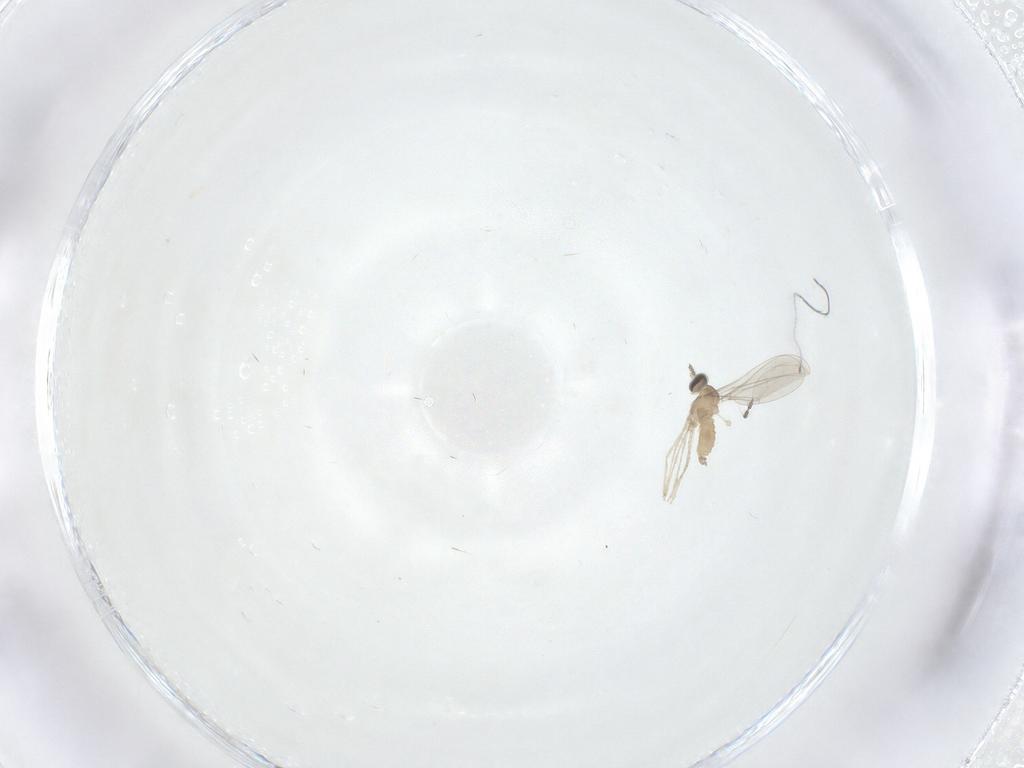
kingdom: Animalia
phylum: Arthropoda
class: Insecta
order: Diptera
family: Cecidomyiidae
